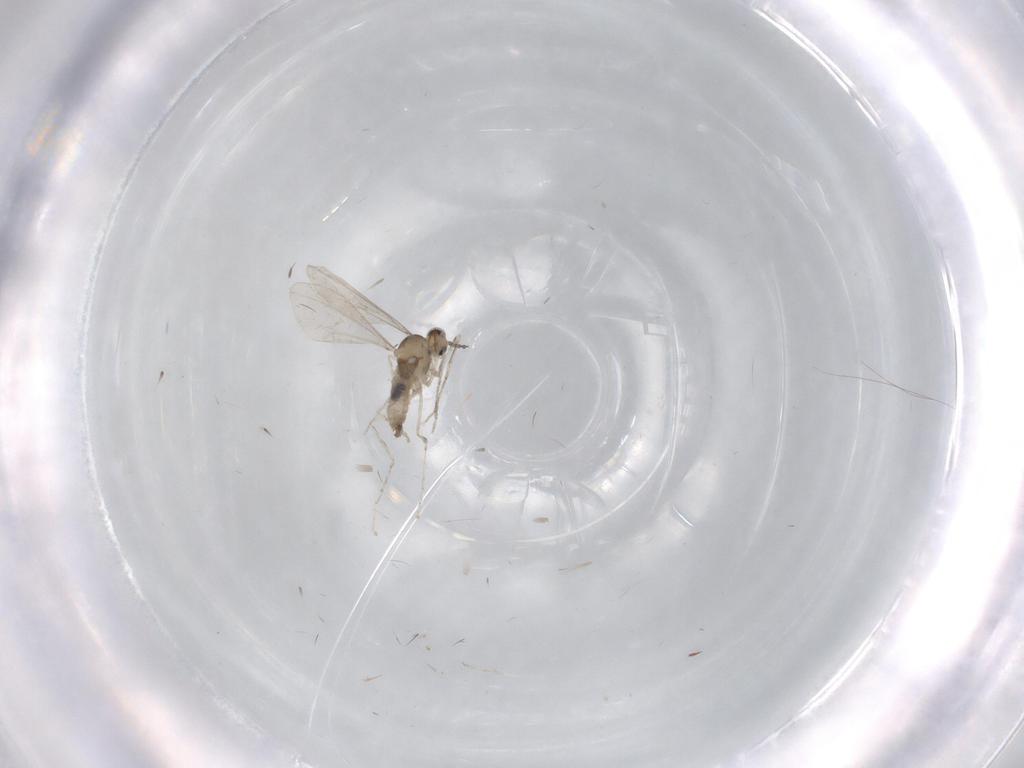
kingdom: Animalia
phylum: Arthropoda
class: Insecta
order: Diptera
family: Cecidomyiidae
